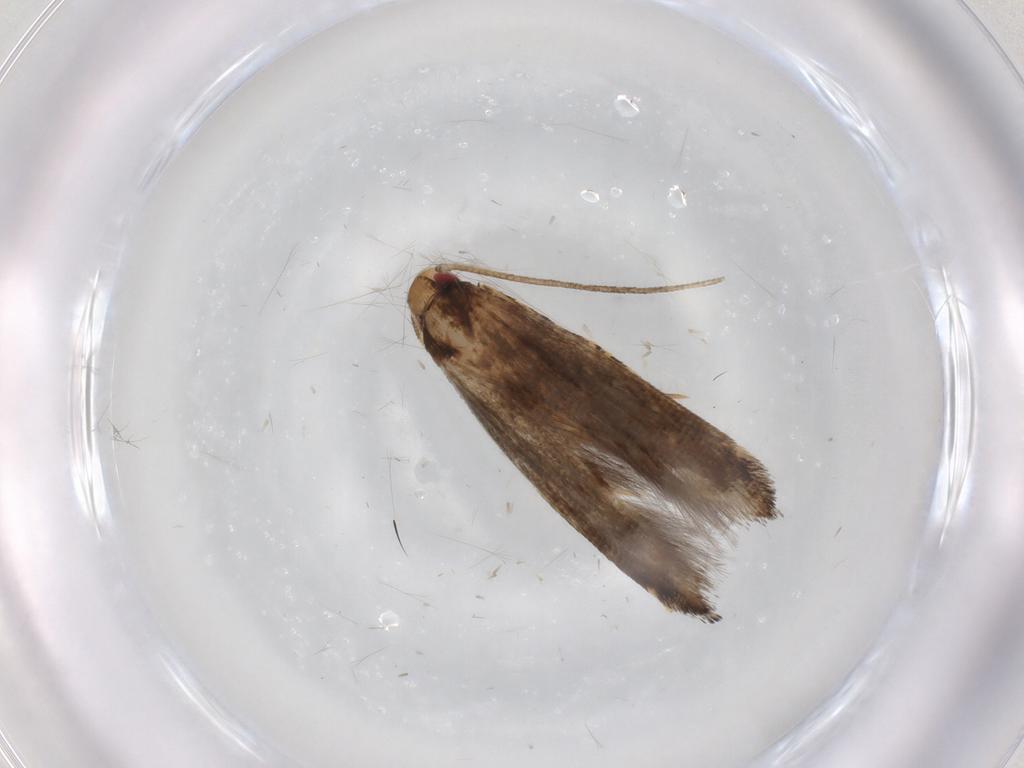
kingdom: Animalia
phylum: Arthropoda
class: Insecta
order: Lepidoptera
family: Momphidae
